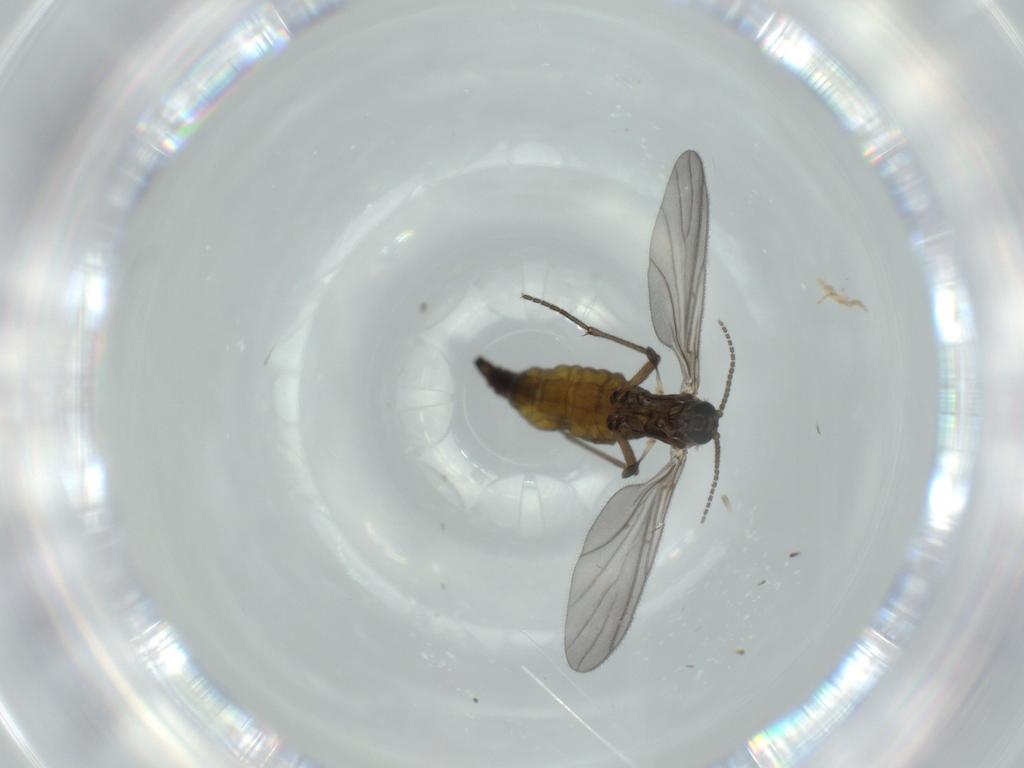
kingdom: Animalia
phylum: Arthropoda
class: Insecta
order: Diptera
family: Sciaridae
